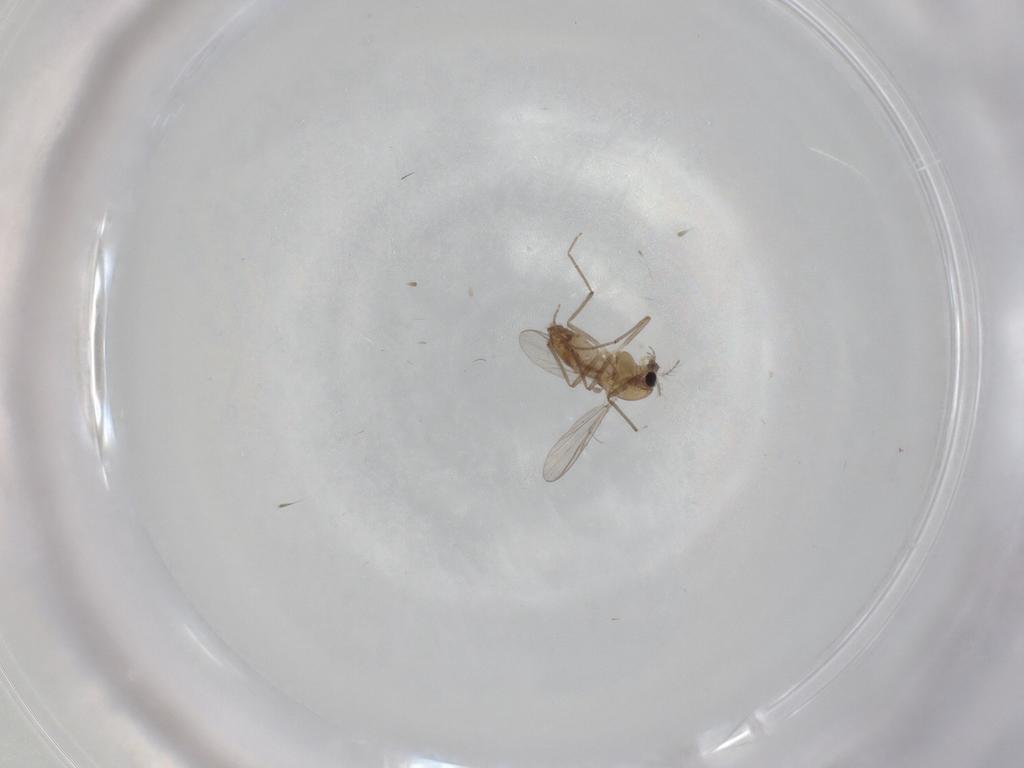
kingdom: Animalia
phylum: Arthropoda
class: Insecta
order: Diptera
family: Chironomidae
